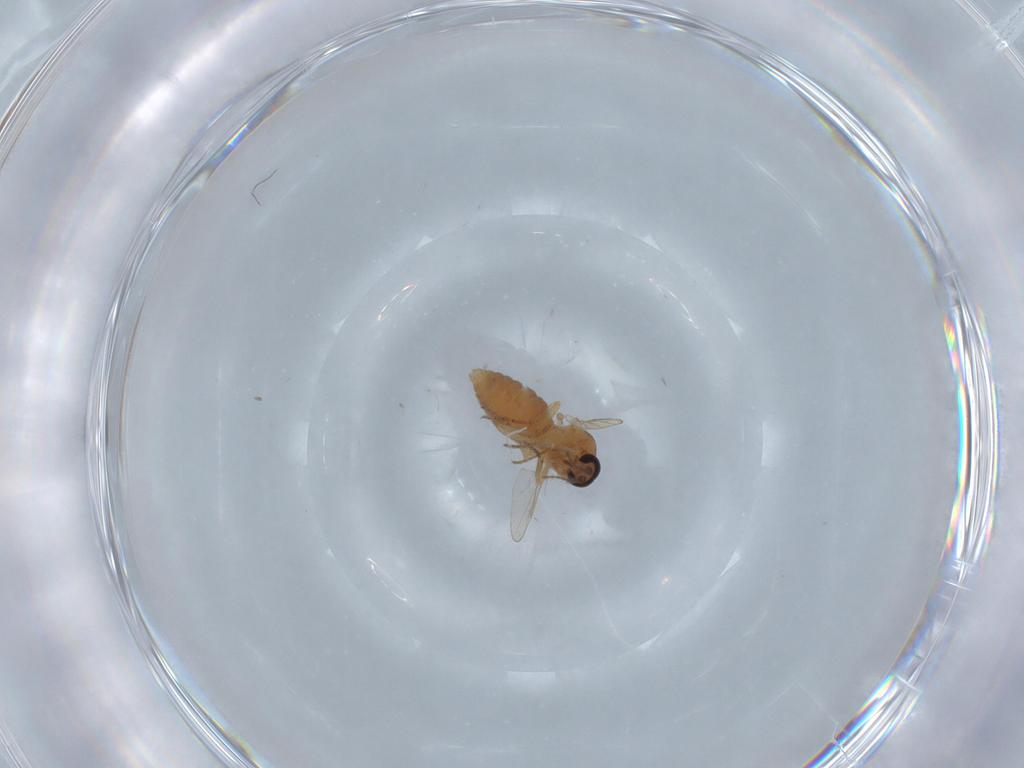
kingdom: Animalia
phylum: Arthropoda
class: Insecta
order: Diptera
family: Ceratopogonidae
